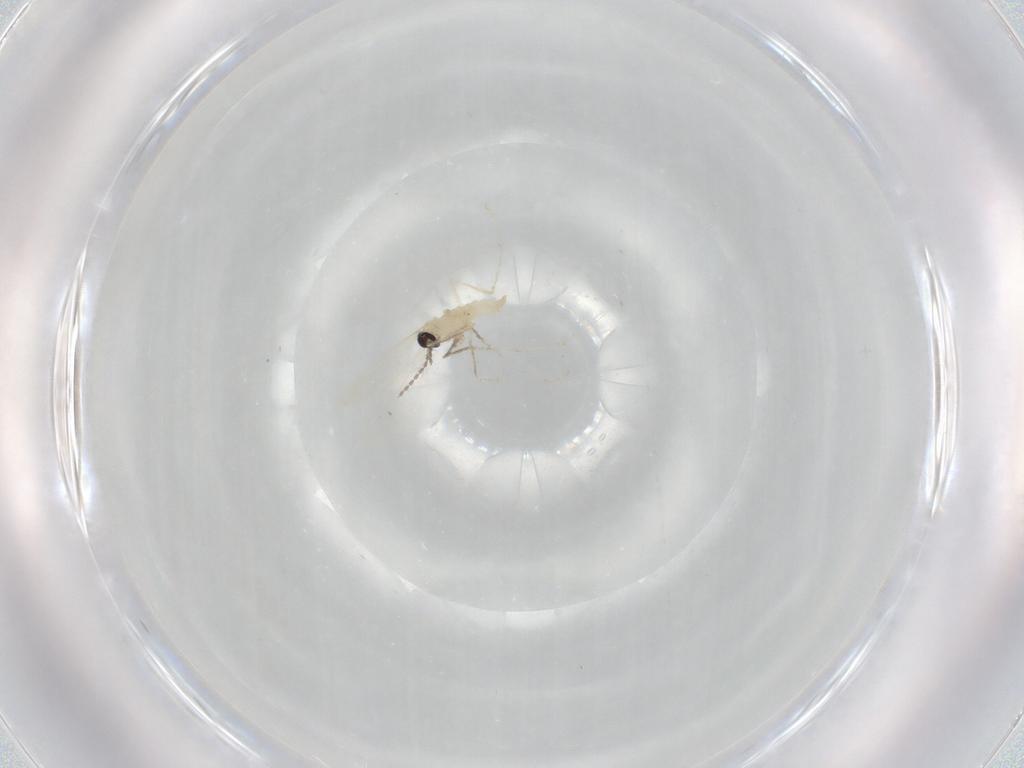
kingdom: Animalia
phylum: Arthropoda
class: Insecta
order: Diptera
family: Cecidomyiidae
